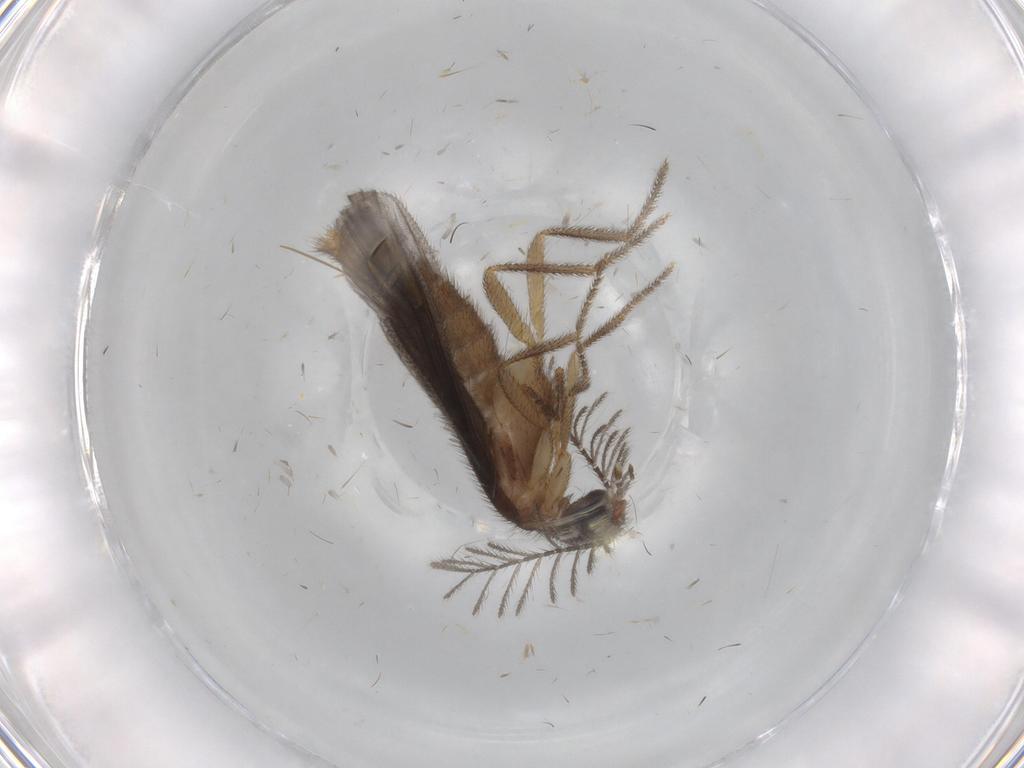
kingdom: Animalia
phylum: Arthropoda
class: Insecta
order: Coleoptera
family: Phengodidae
